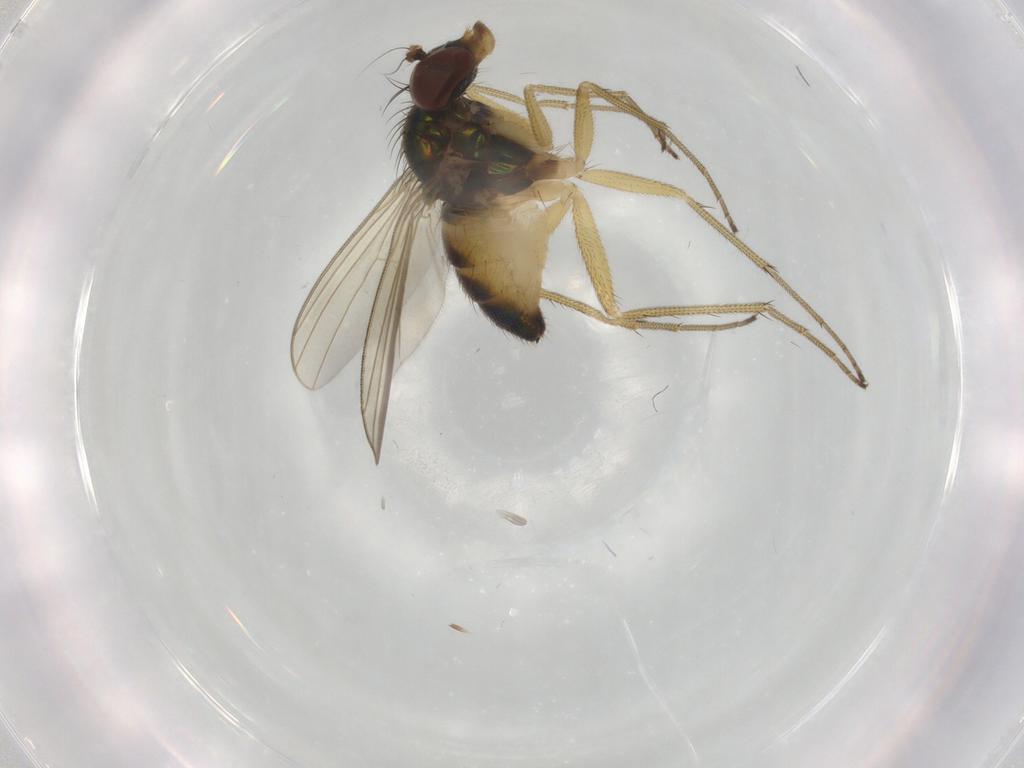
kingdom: Animalia
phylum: Arthropoda
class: Insecta
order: Diptera
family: Dolichopodidae
